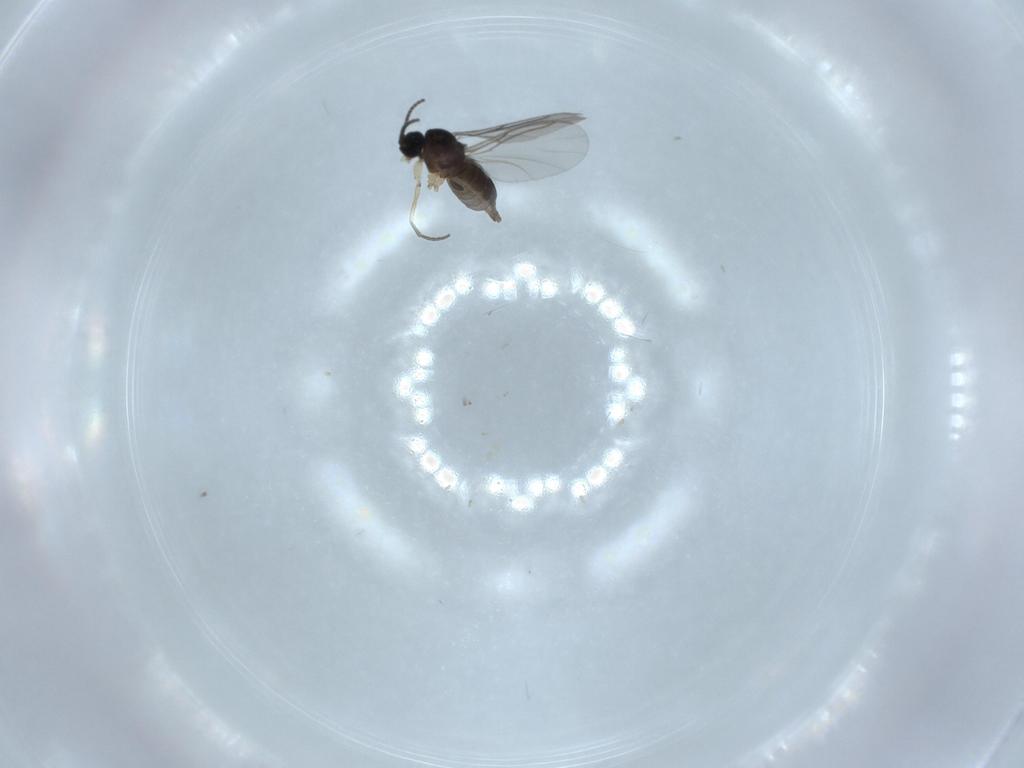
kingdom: Animalia
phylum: Arthropoda
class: Insecta
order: Diptera
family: Sciaridae
